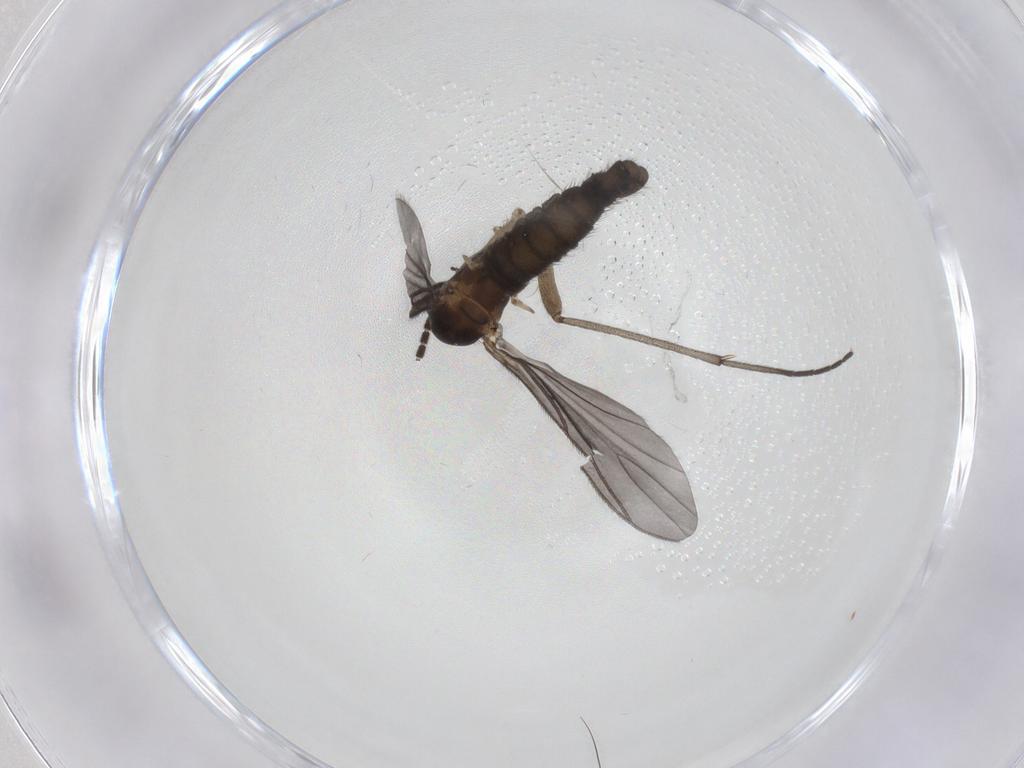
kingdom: Animalia
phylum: Arthropoda
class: Insecta
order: Diptera
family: Sciaridae
